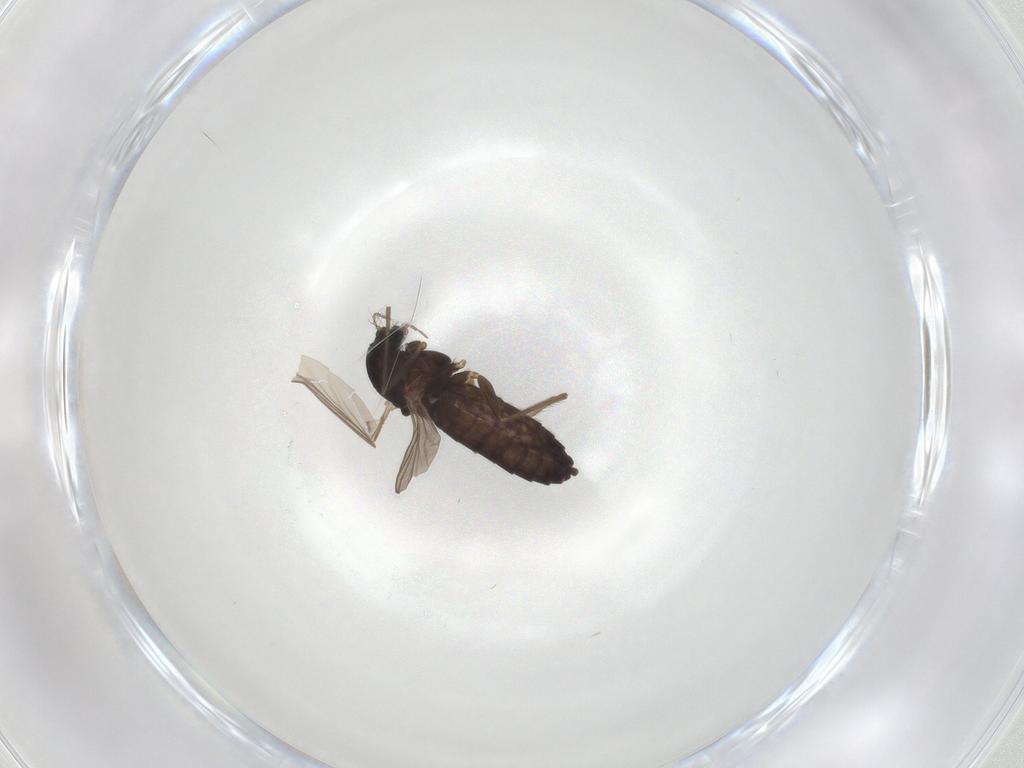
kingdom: Animalia
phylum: Arthropoda
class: Insecta
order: Diptera
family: Chironomidae
